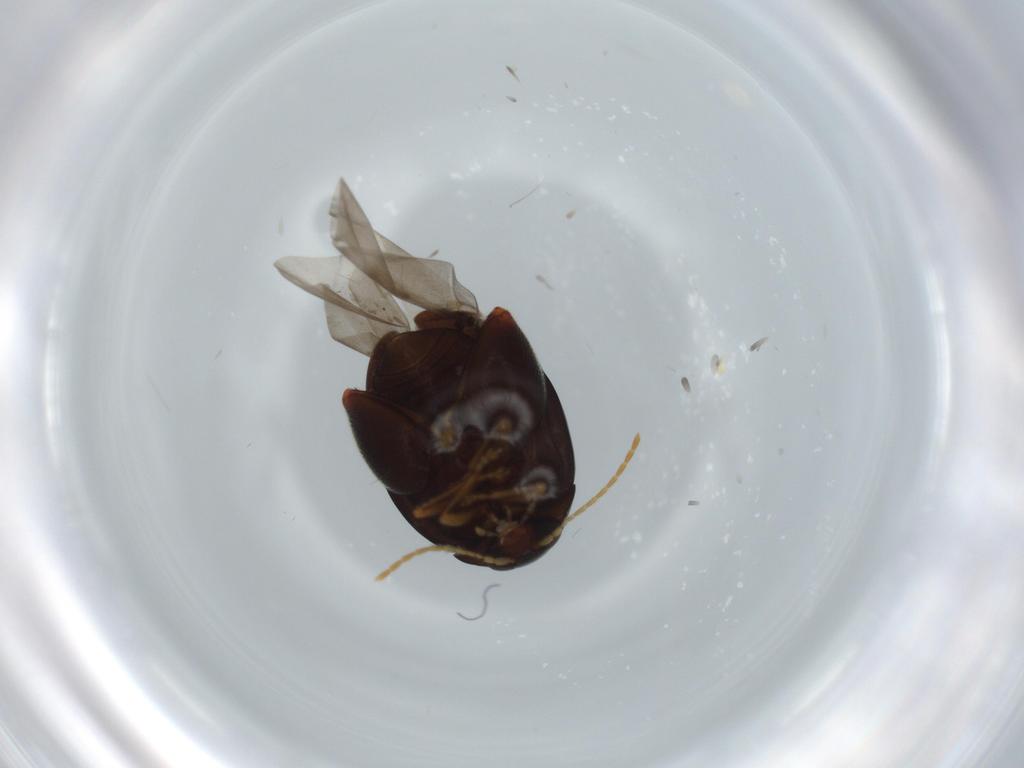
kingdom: Animalia
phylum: Arthropoda
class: Insecta
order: Coleoptera
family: Chrysomelidae
